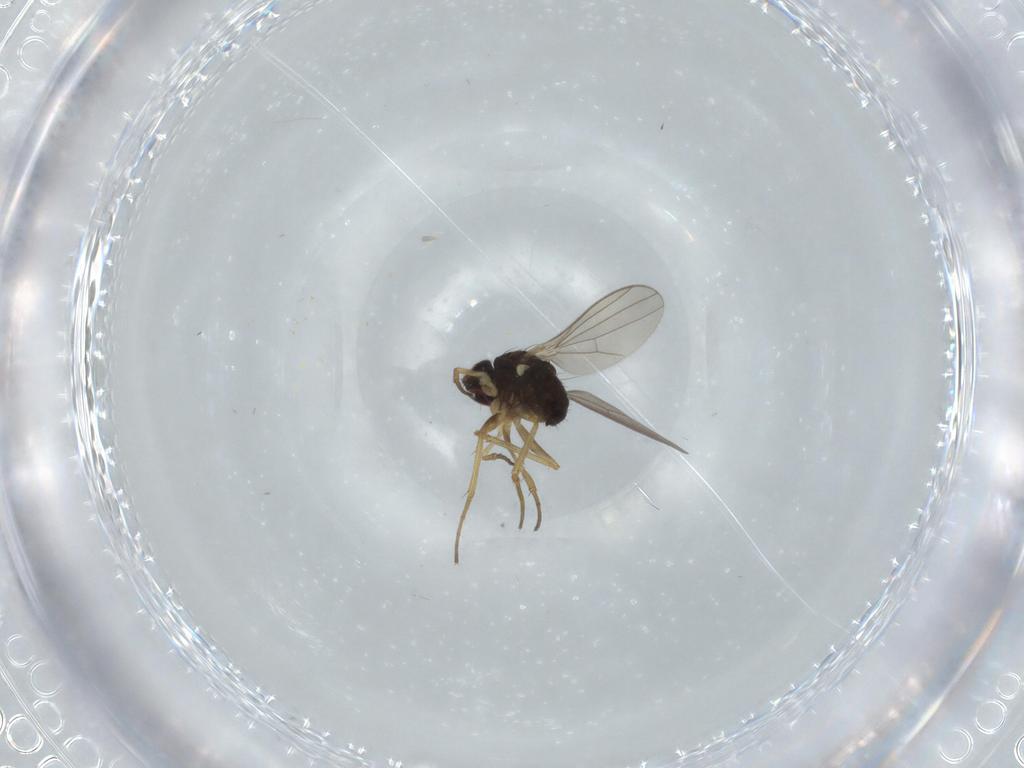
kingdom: Animalia
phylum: Arthropoda
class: Insecta
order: Diptera
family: Dolichopodidae
